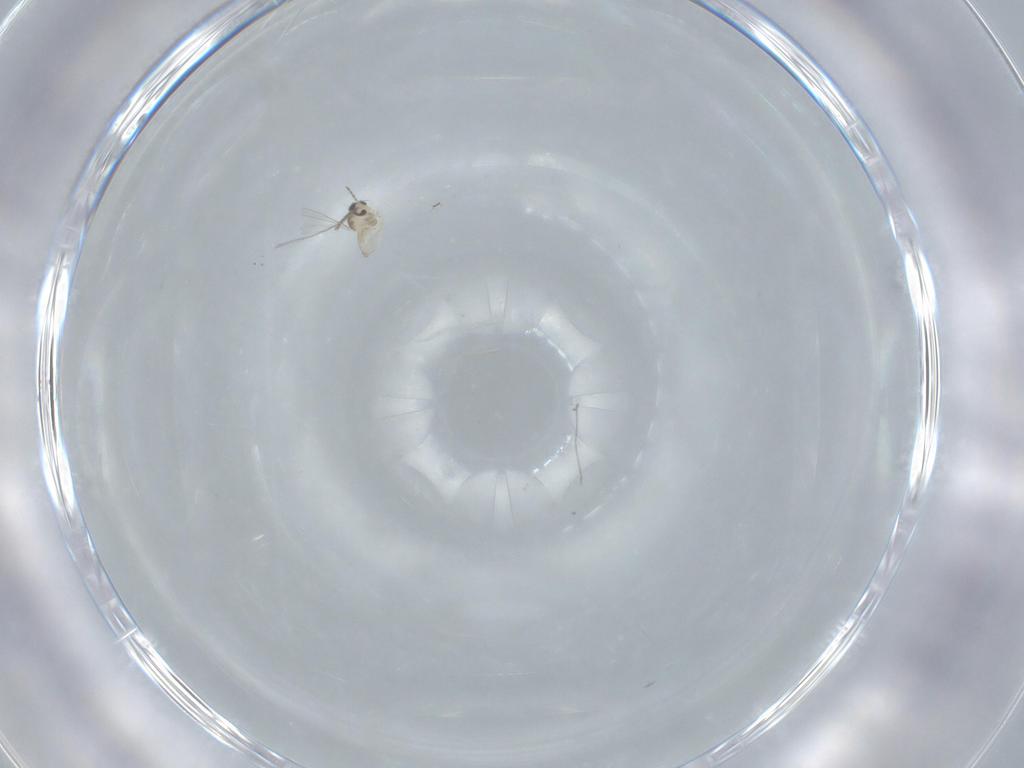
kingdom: Animalia
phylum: Arthropoda
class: Insecta
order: Diptera
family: Cecidomyiidae
